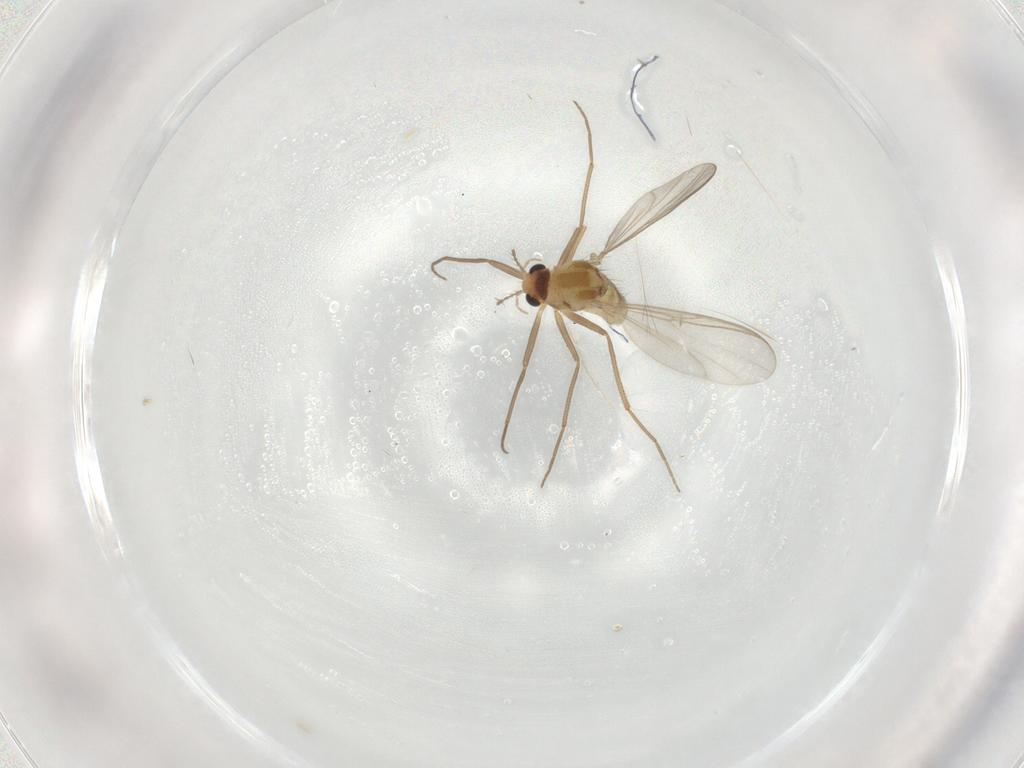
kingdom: Animalia
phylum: Arthropoda
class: Insecta
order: Diptera
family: Chironomidae
